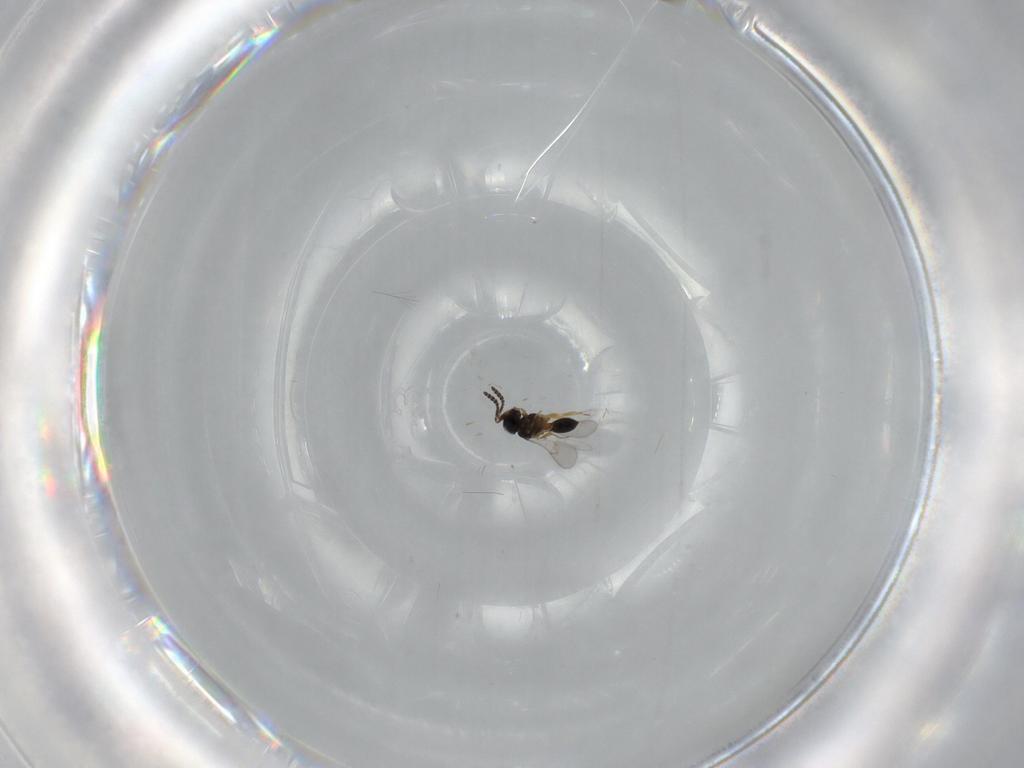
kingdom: Animalia
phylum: Arthropoda
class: Insecta
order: Hymenoptera
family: Scelionidae
